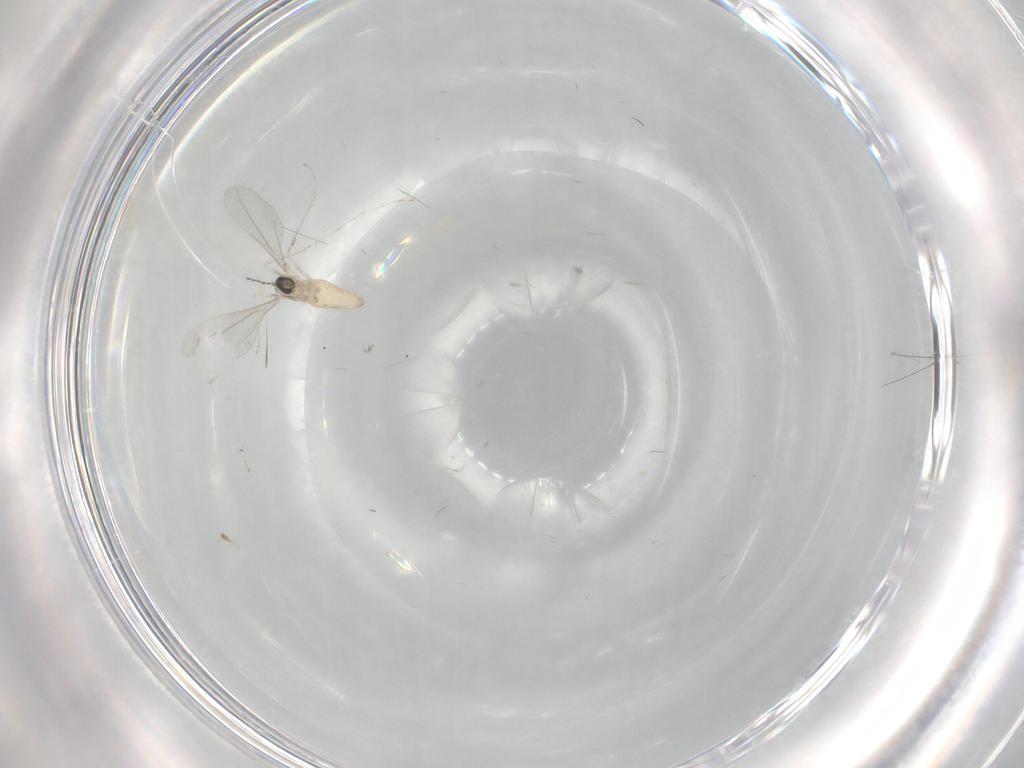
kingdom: Animalia
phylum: Arthropoda
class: Insecta
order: Diptera
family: Cecidomyiidae
